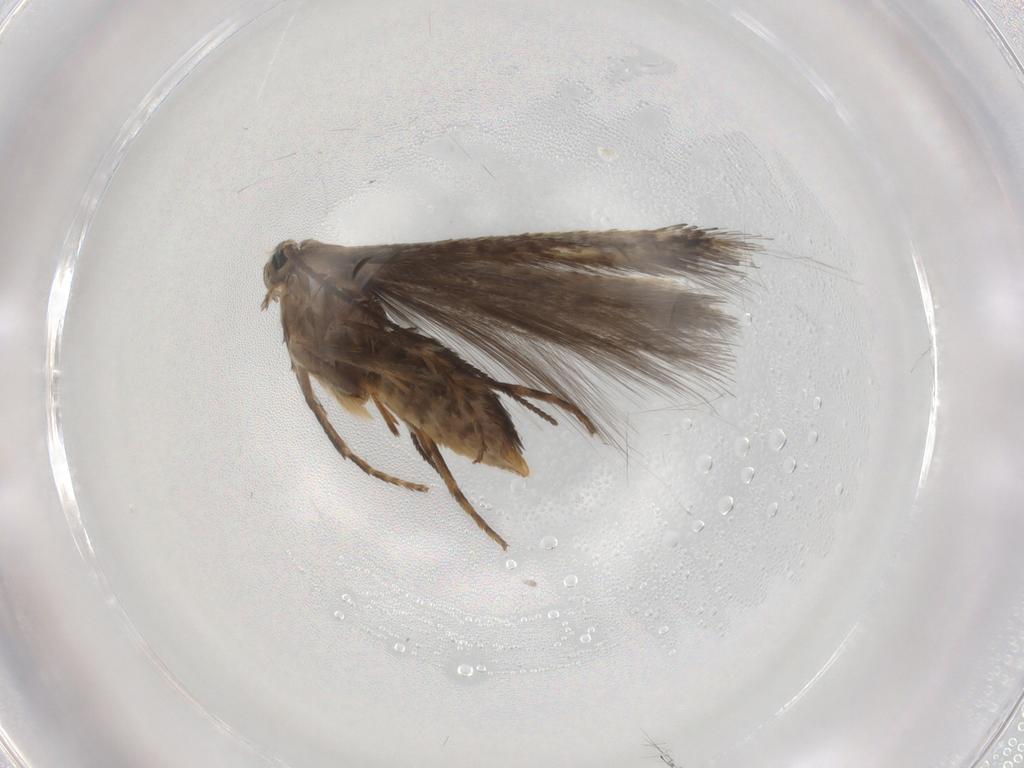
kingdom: Animalia
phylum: Arthropoda
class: Insecta
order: Lepidoptera
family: Nepticulidae
